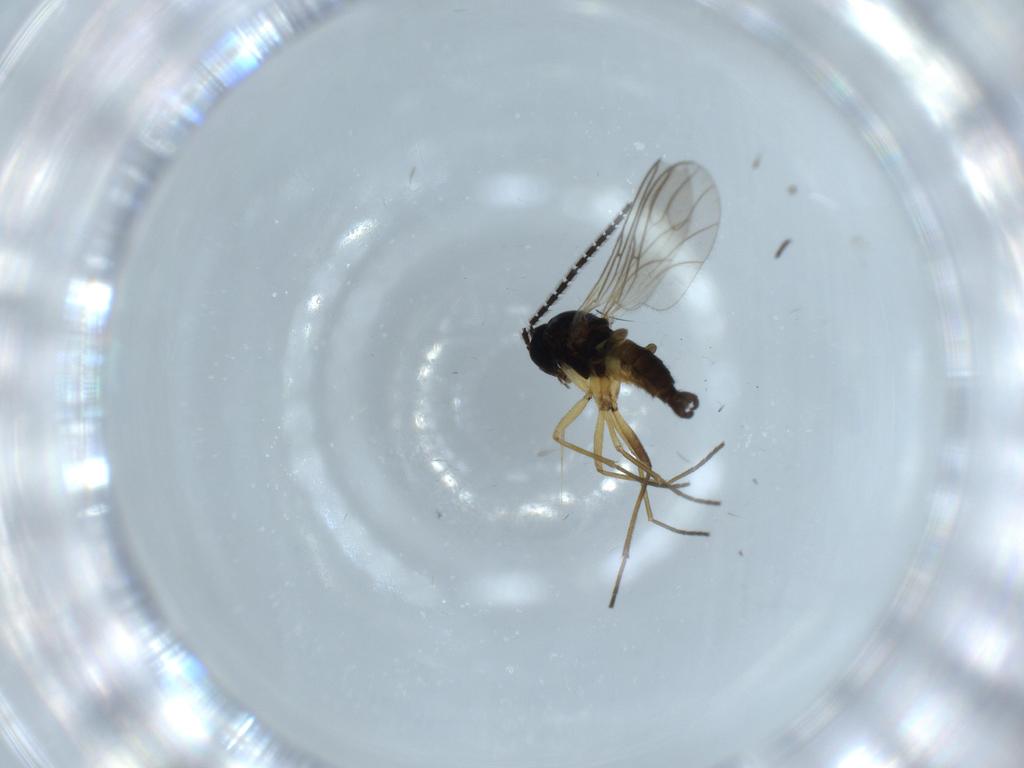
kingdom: Animalia
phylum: Arthropoda
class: Insecta
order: Diptera
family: Sciaridae
